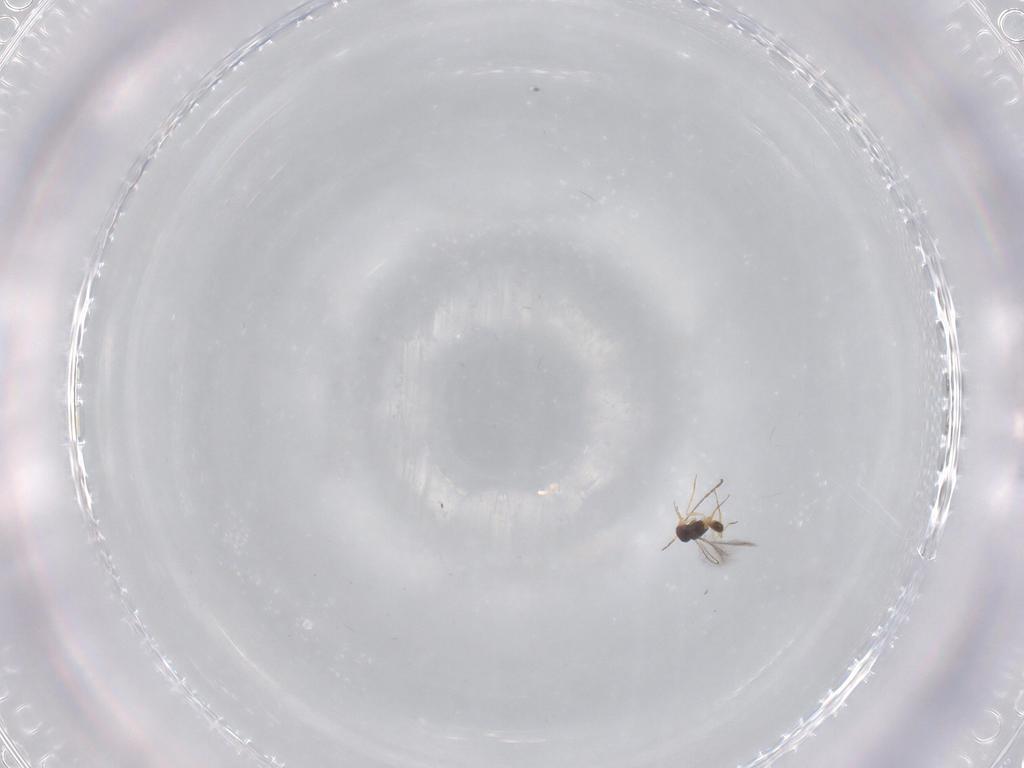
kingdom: Animalia
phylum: Arthropoda
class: Insecta
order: Hymenoptera
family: Mymaridae
